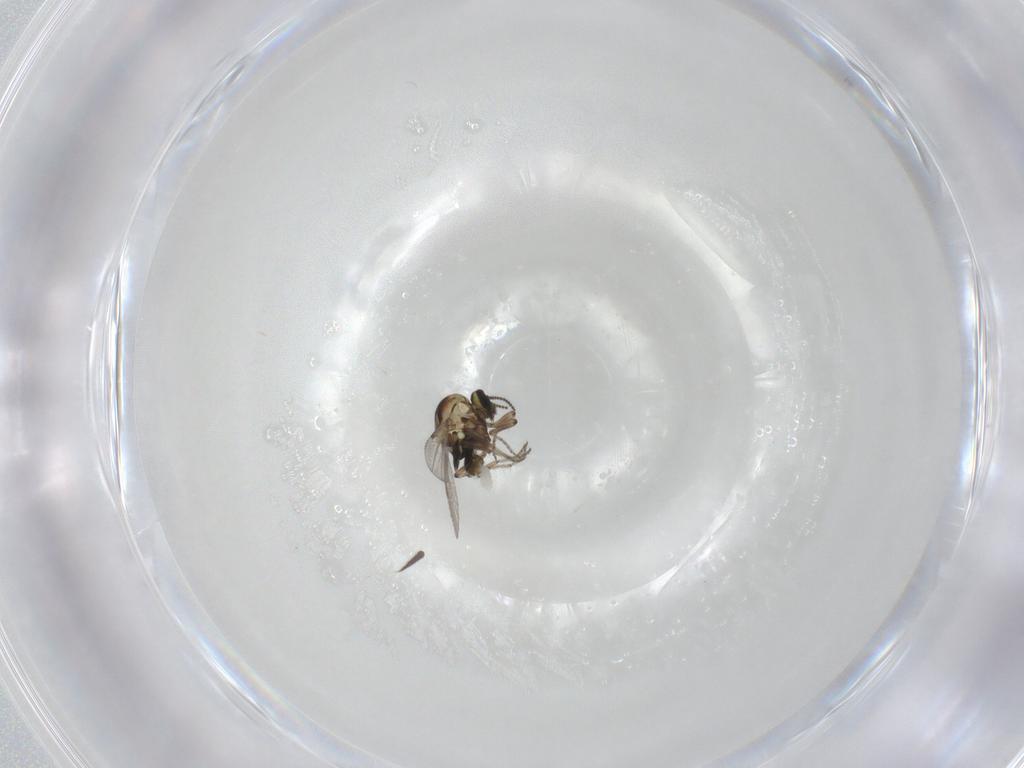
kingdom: Animalia
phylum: Arthropoda
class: Insecta
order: Diptera
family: Ceratopogonidae
